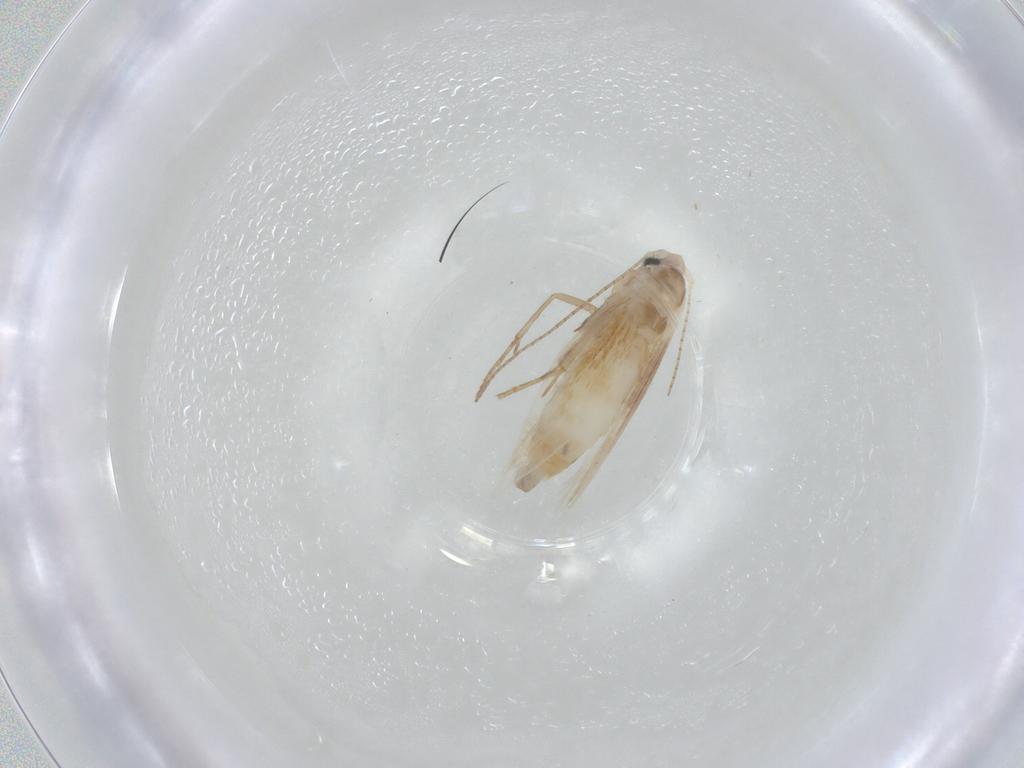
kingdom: Animalia
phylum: Arthropoda
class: Insecta
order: Lepidoptera
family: Bucculatricidae
